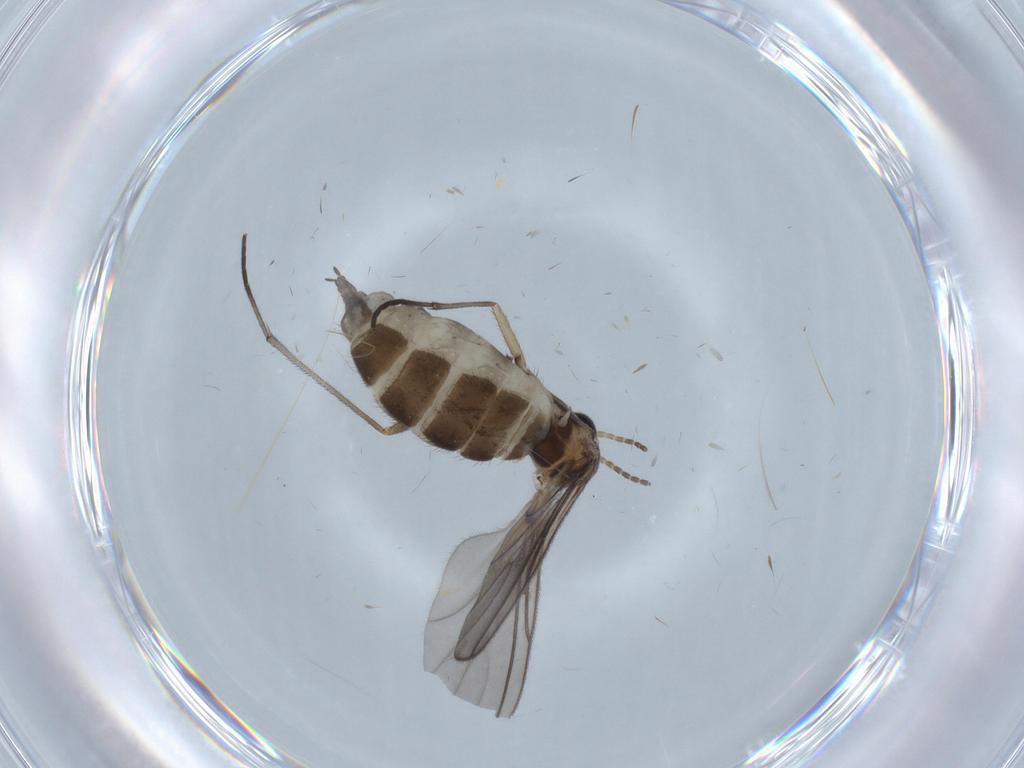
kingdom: Animalia
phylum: Arthropoda
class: Insecta
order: Diptera
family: Sciaridae
